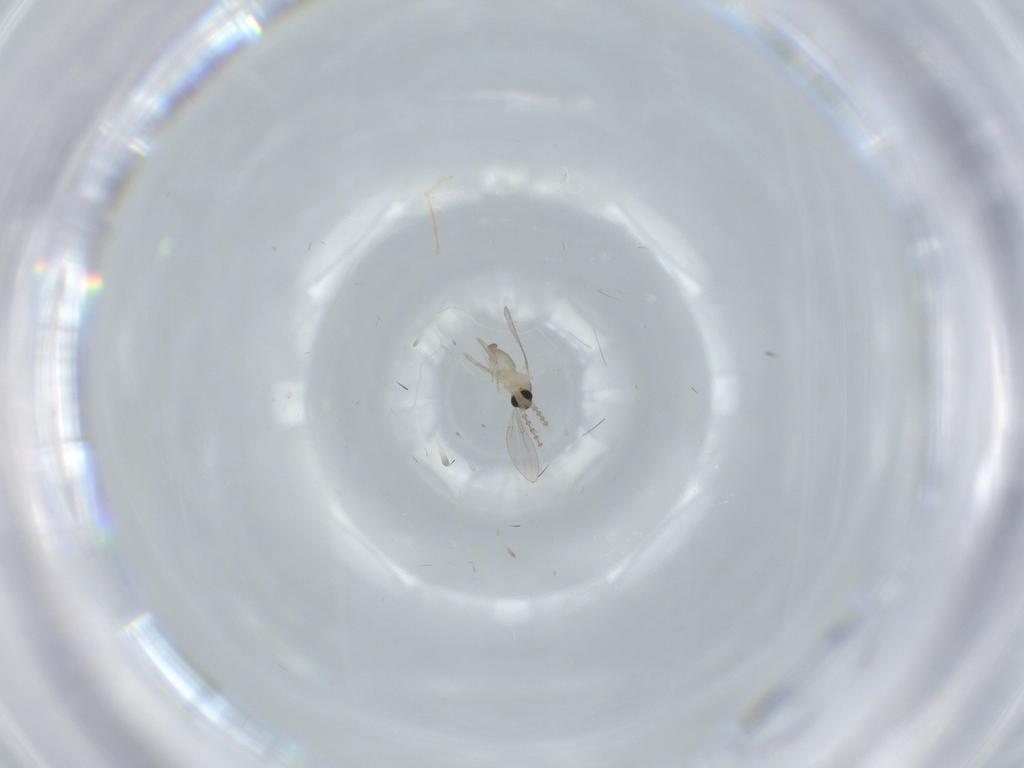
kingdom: Animalia
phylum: Arthropoda
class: Insecta
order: Diptera
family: Cecidomyiidae
